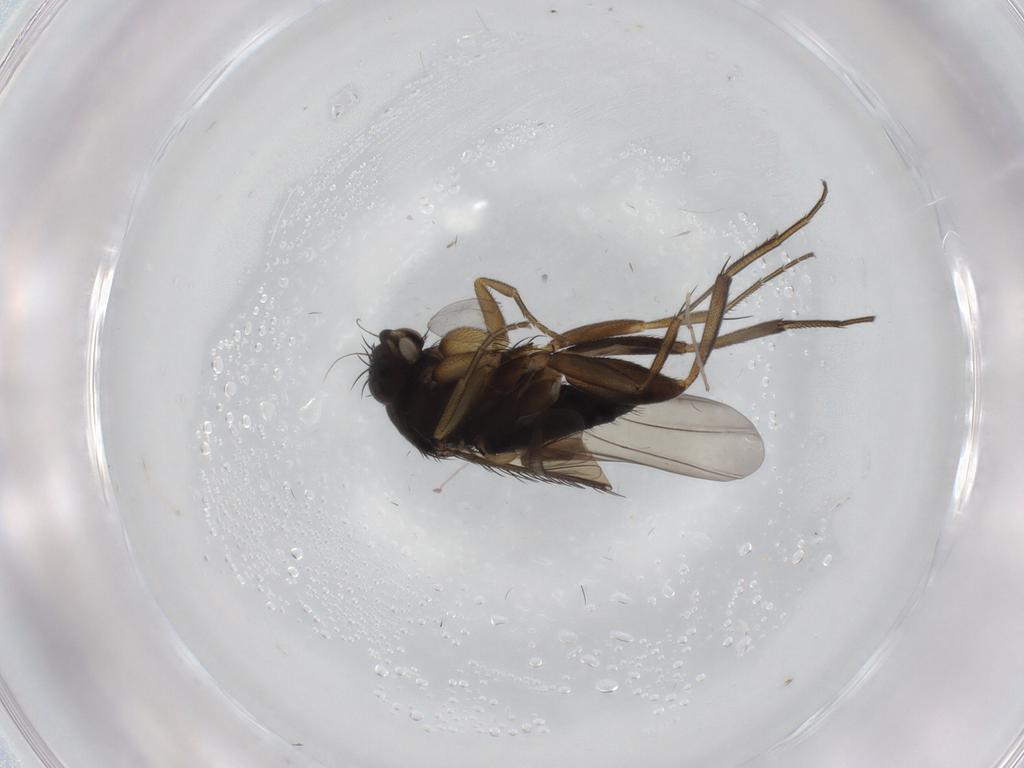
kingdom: Animalia
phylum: Arthropoda
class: Insecta
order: Diptera
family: Phoridae
